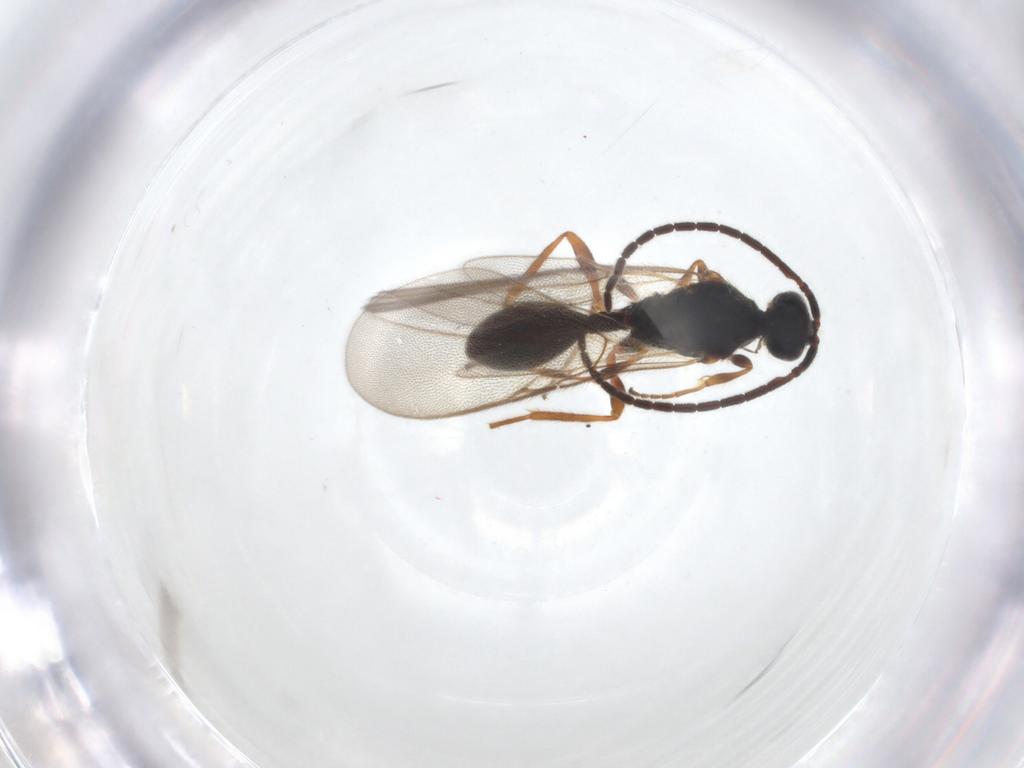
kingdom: Animalia
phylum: Arthropoda
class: Insecta
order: Hymenoptera
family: Diapriidae
